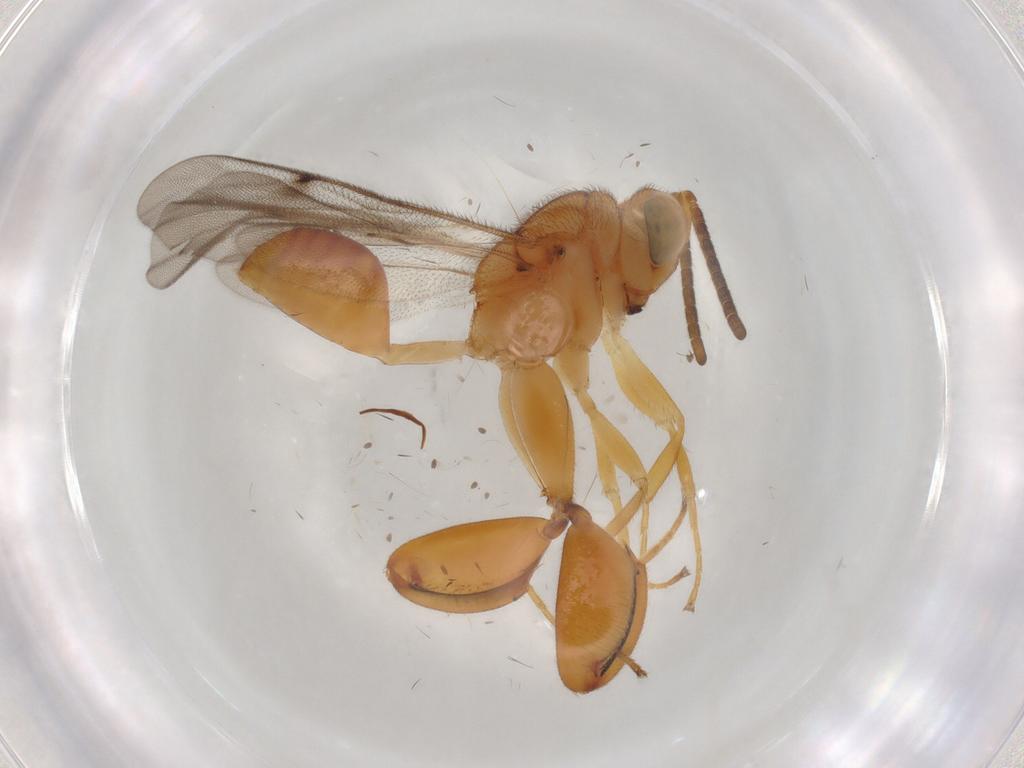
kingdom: Animalia
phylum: Arthropoda
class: Insecta
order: Hymenoptera
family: Chalcididae
